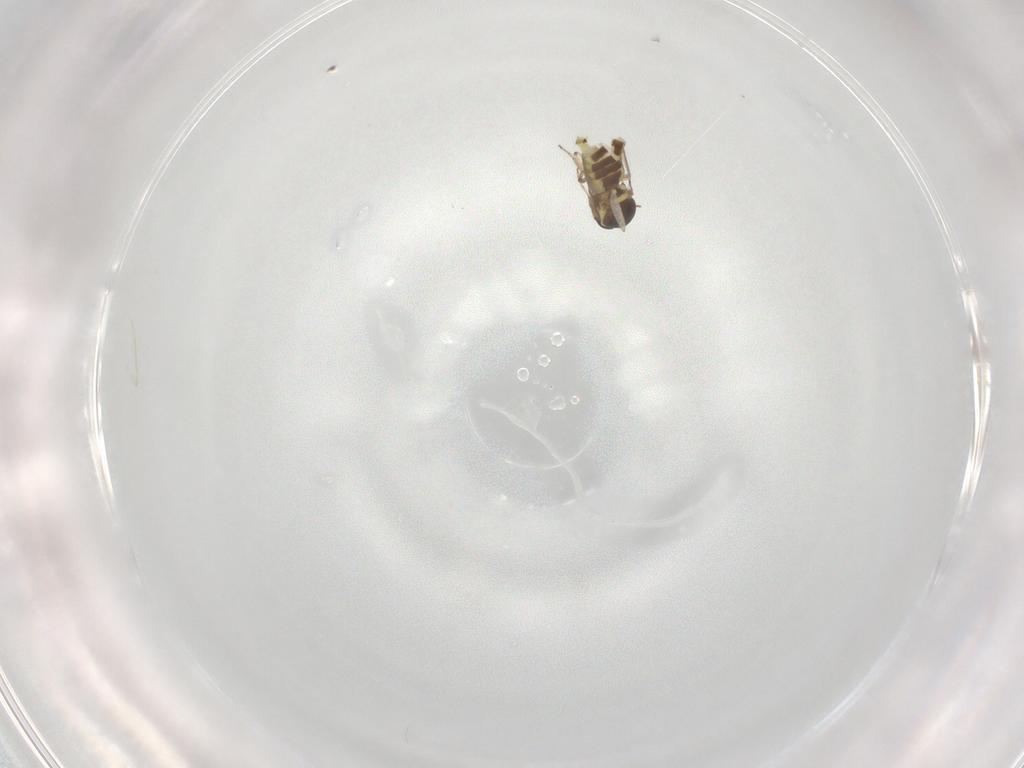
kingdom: Animalia
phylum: Arthropoda
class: Insecta
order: Diptera
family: Ceratopogonidae
